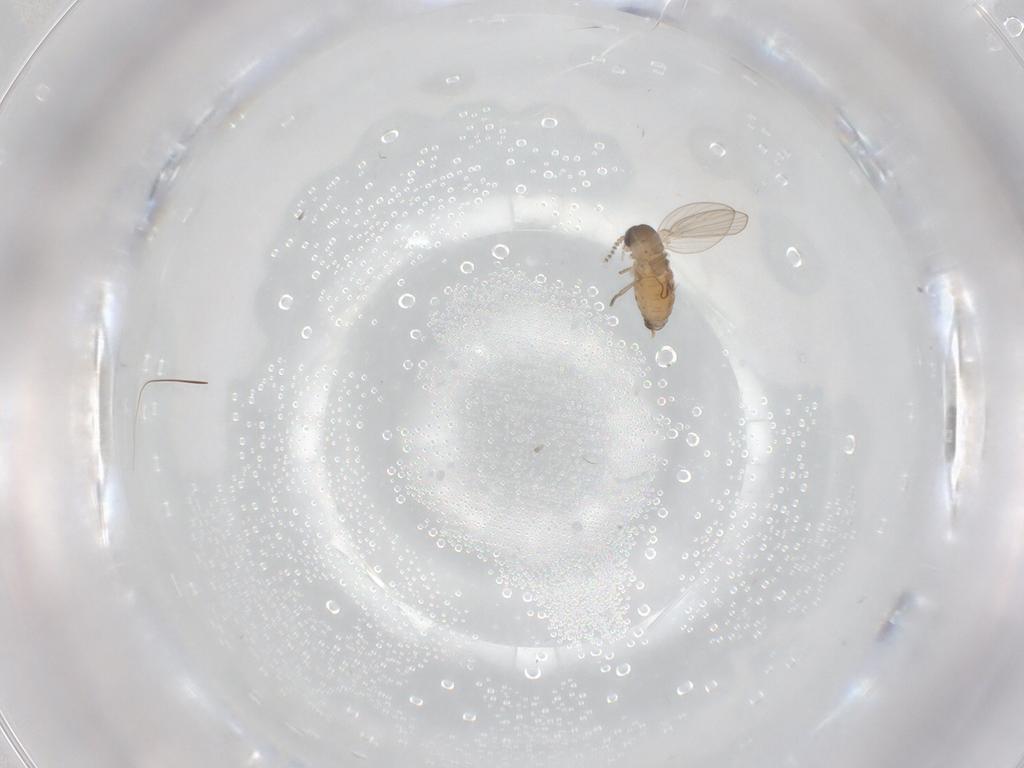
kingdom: Animalia
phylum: Arthropoda
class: Insecta
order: Diptera
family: Psychodidae
